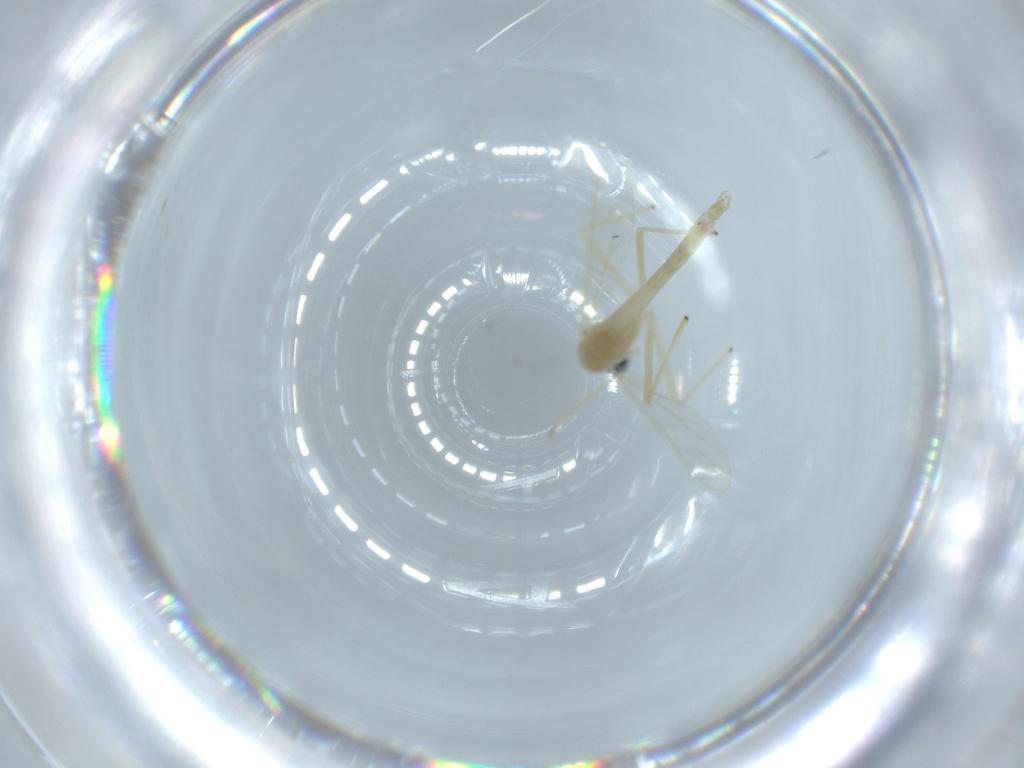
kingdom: Animalia
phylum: Arthropoda
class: Insecta
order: Diptera
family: Chironomidae
